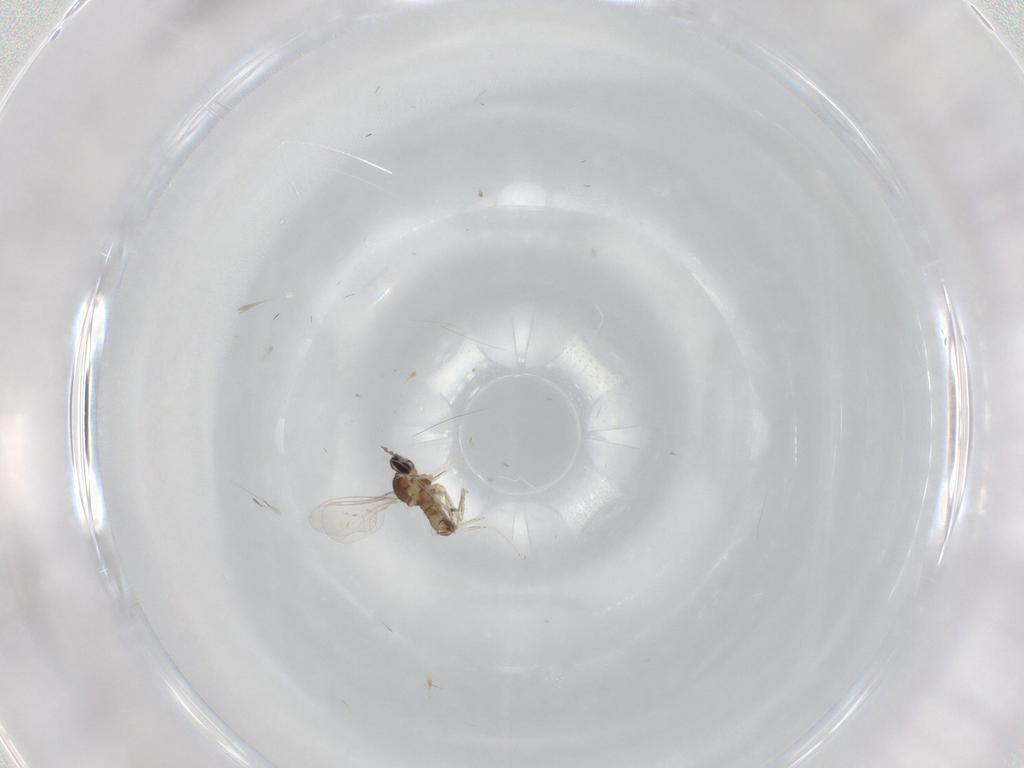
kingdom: Animalia
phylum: Arthropoda
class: Insecta
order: Diptera
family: Cecidomyiidae
